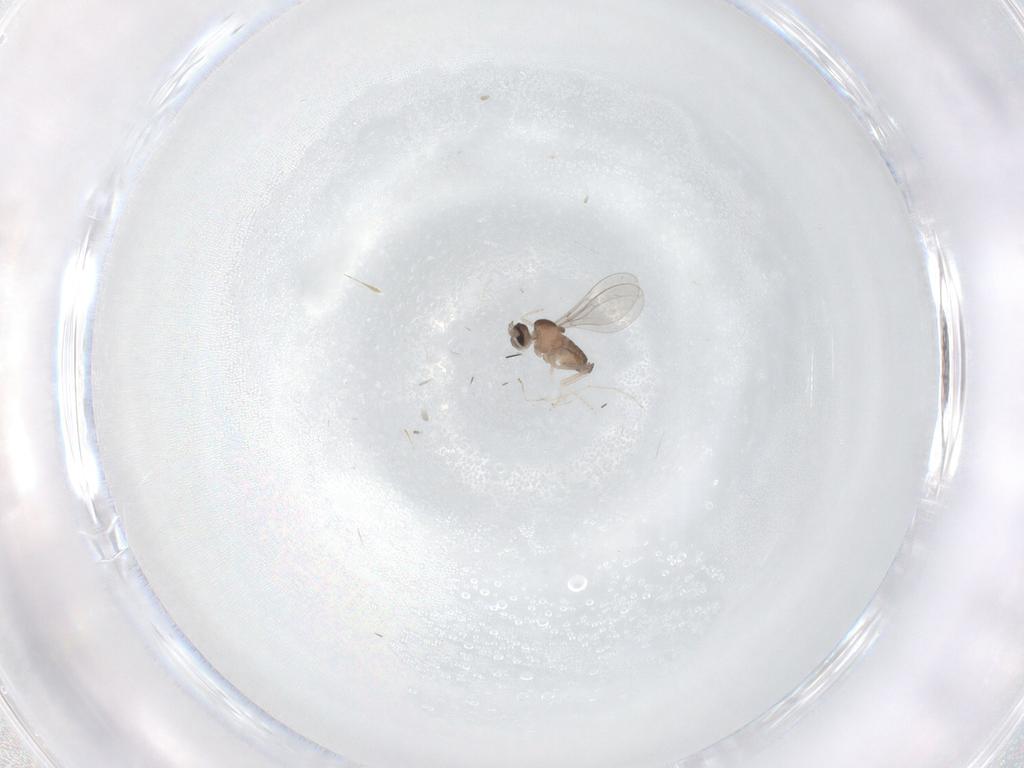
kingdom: Animalia
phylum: Arthropoda
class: Insecta
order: Diptera
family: Cecidomyiidae
